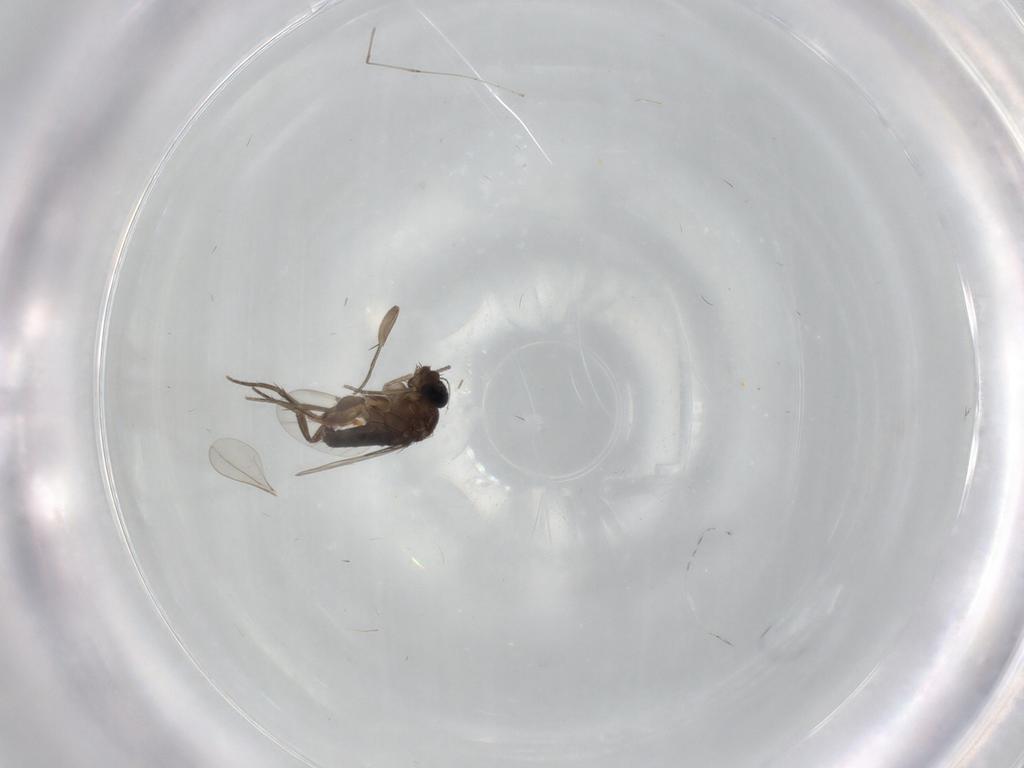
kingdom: Animalia
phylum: Arthropoda
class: Insecta
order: Diptera
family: Phoridae
